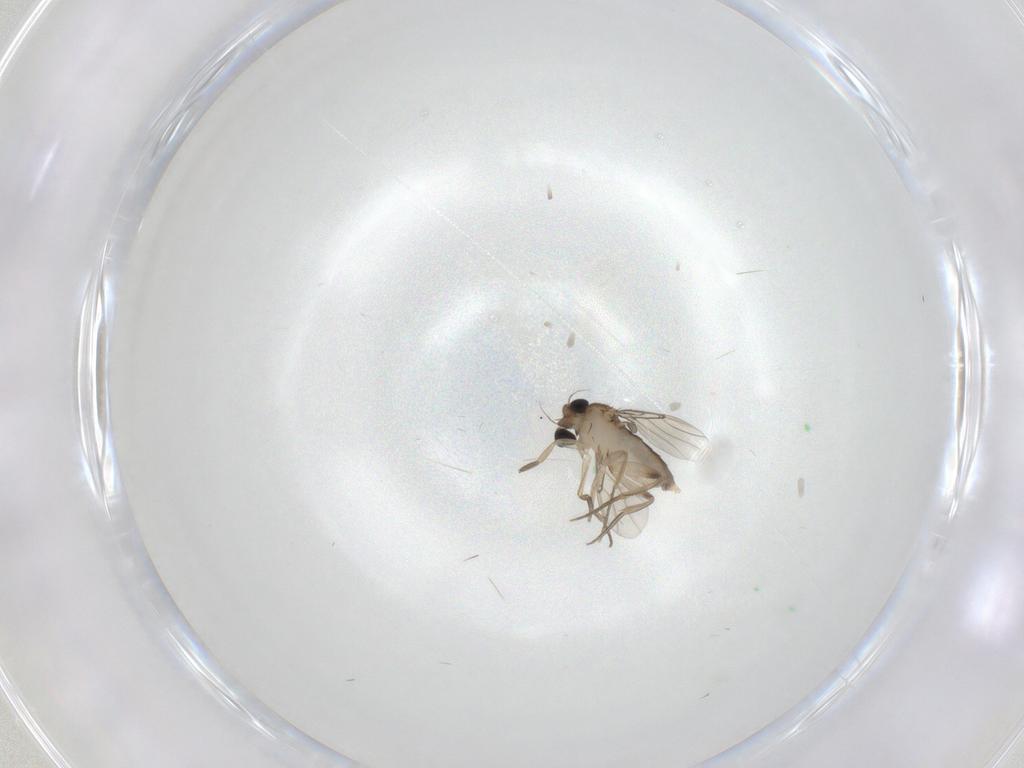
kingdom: Animalia
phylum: Arthropoda
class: Insecta
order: Diptera
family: Phoridae
